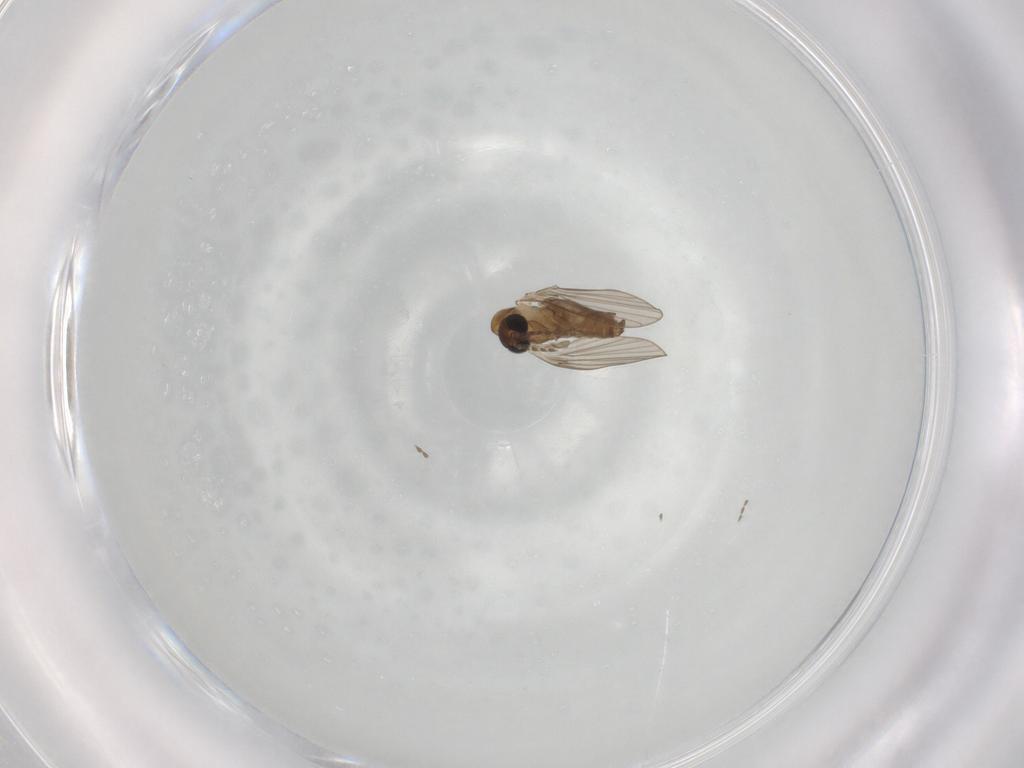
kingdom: Animalia
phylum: Arthropoda
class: Insecta
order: Diptera
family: Psychodidae
